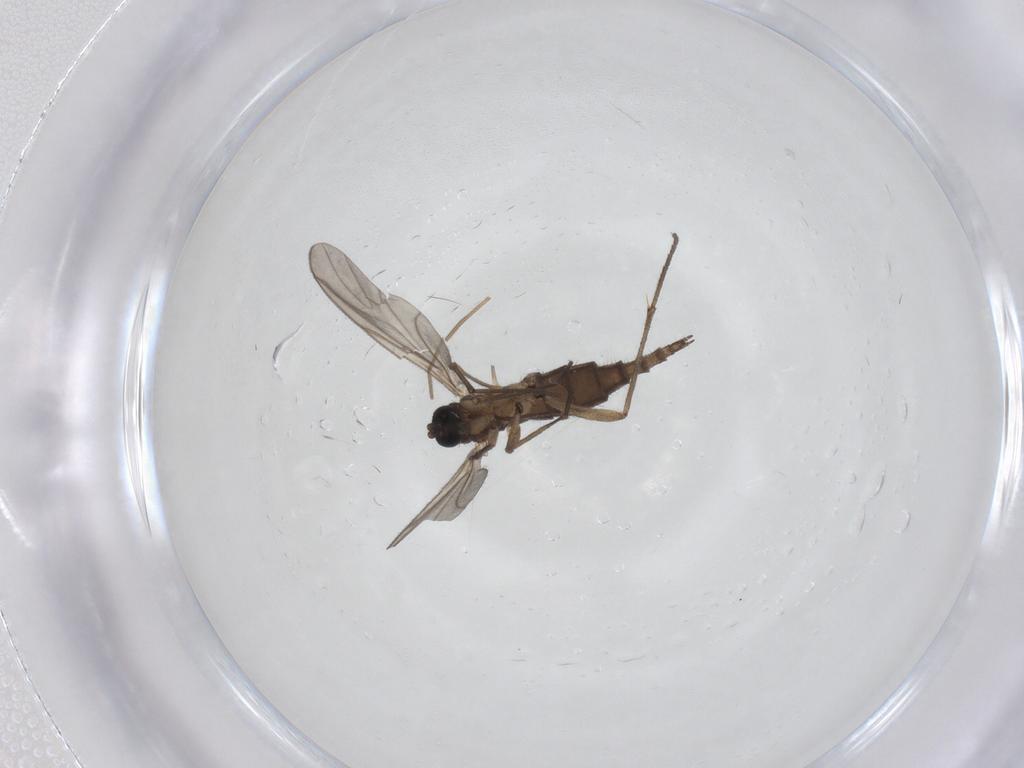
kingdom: Animalia
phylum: Arthropoda
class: Insecta
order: Diptera
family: Sciaridae
